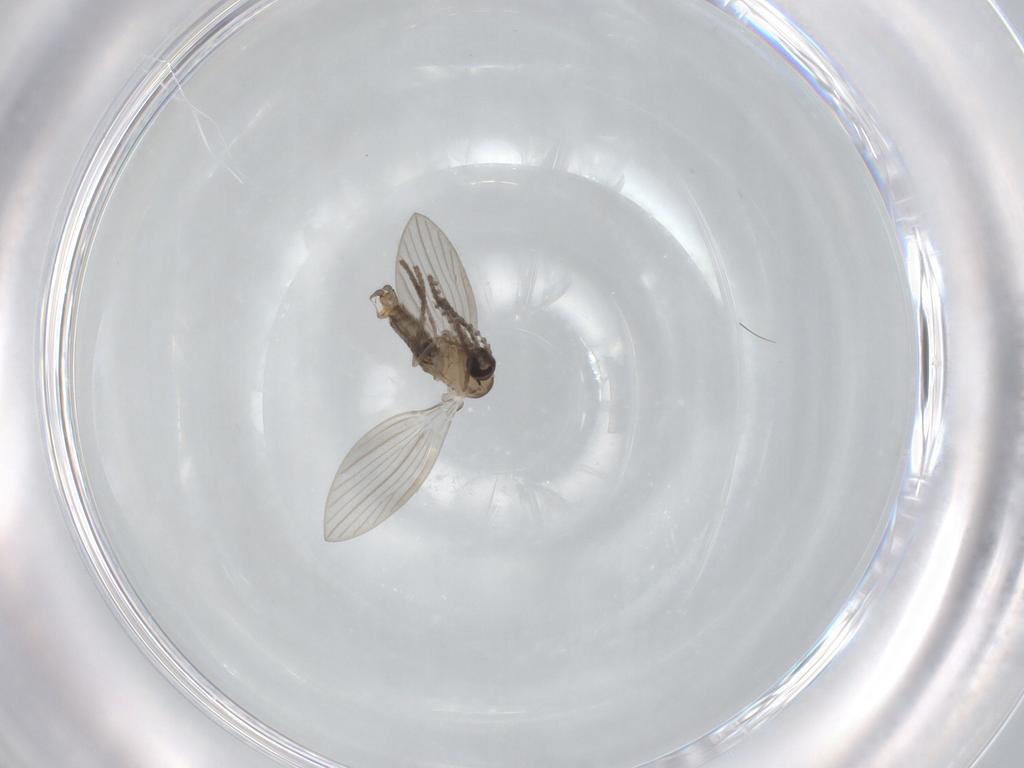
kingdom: Animalia
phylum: Arthropoda
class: Insecta
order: Diptera
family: Psychodidae
